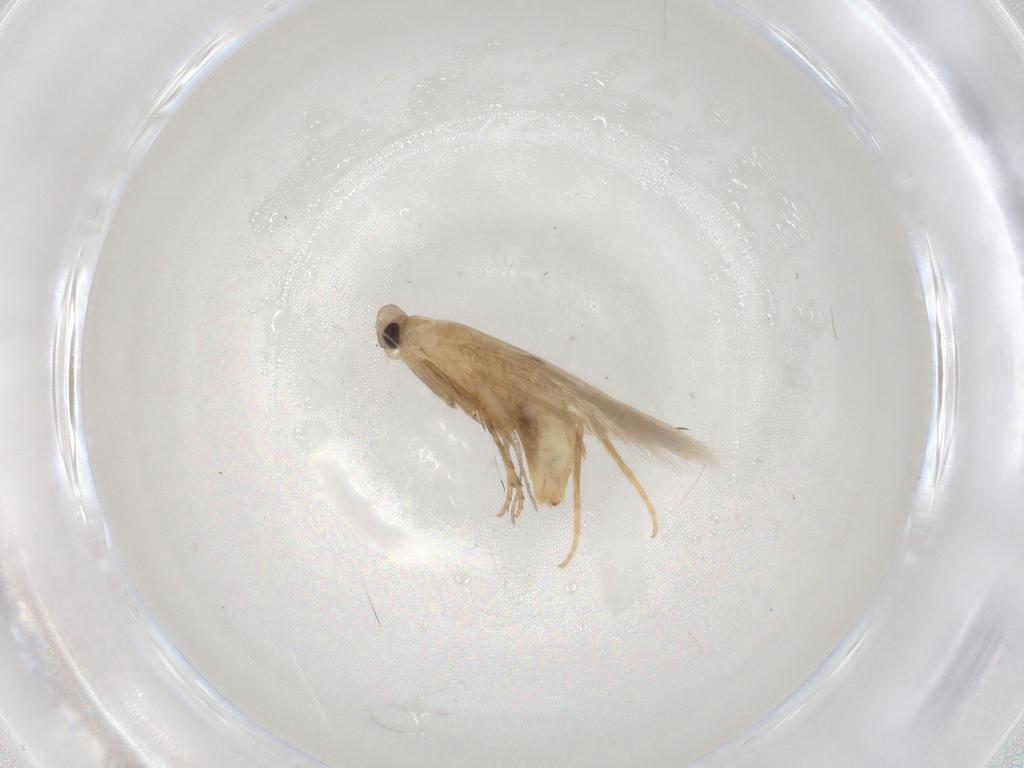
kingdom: Animalia
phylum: Arthropoda
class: Insecta
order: Lepidoptera
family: Tischeriidae
